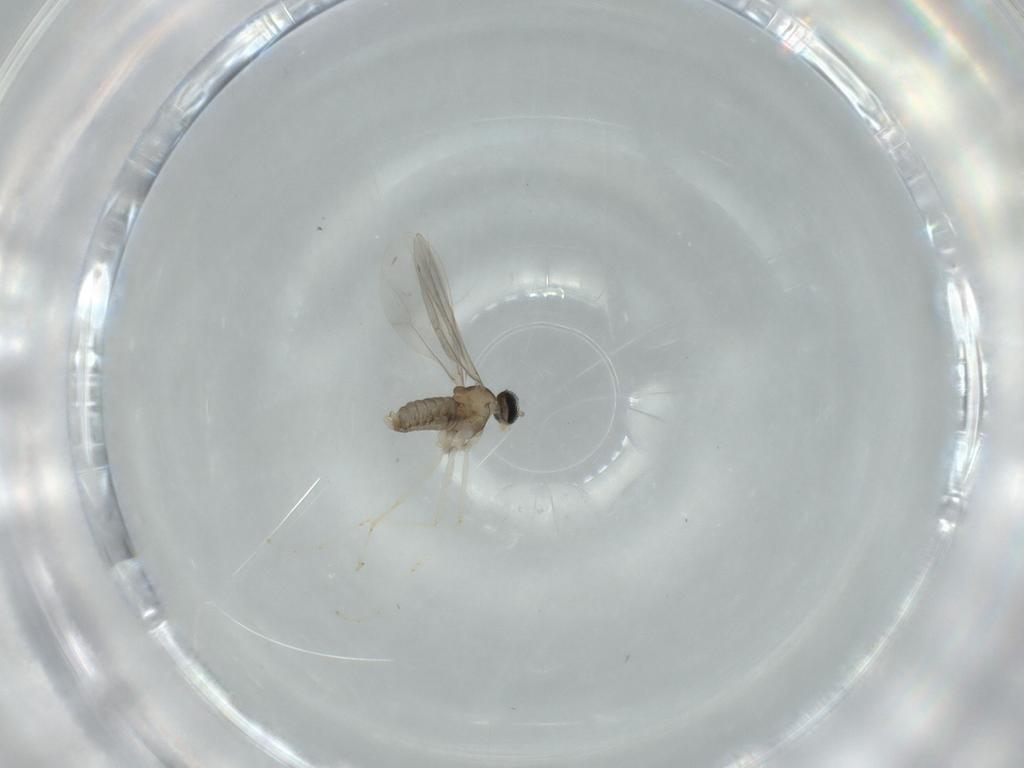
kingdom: Animalia
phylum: Arthropoda
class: Insecta
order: Diptera
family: Cecidomyiidae
